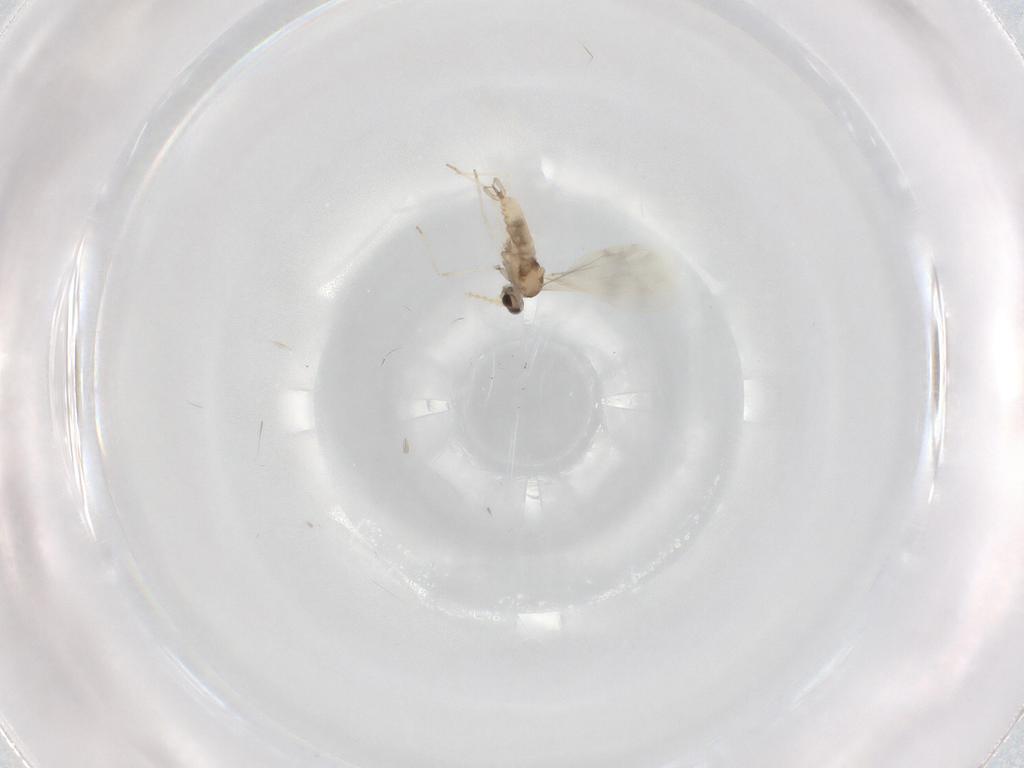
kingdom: Animalia
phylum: Arthropoda
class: Insecta
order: Diptera
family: Cecidomyiidae
